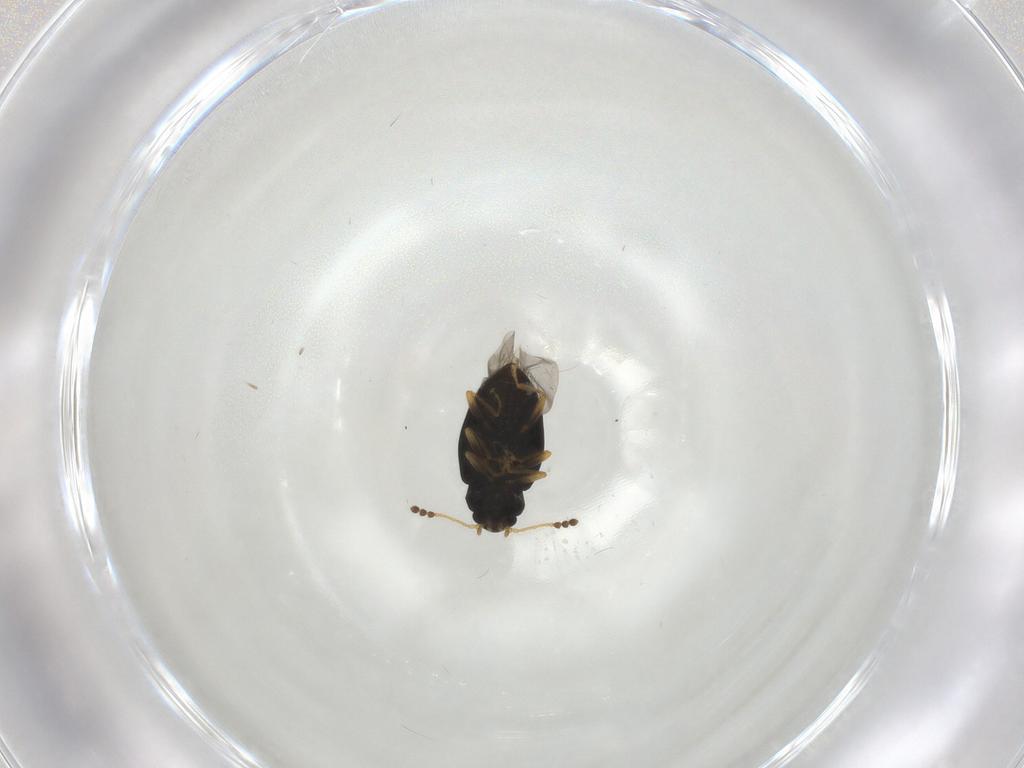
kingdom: Animalia
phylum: Arthropoda
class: Insecta
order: Coleoptera
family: Erotylidae
